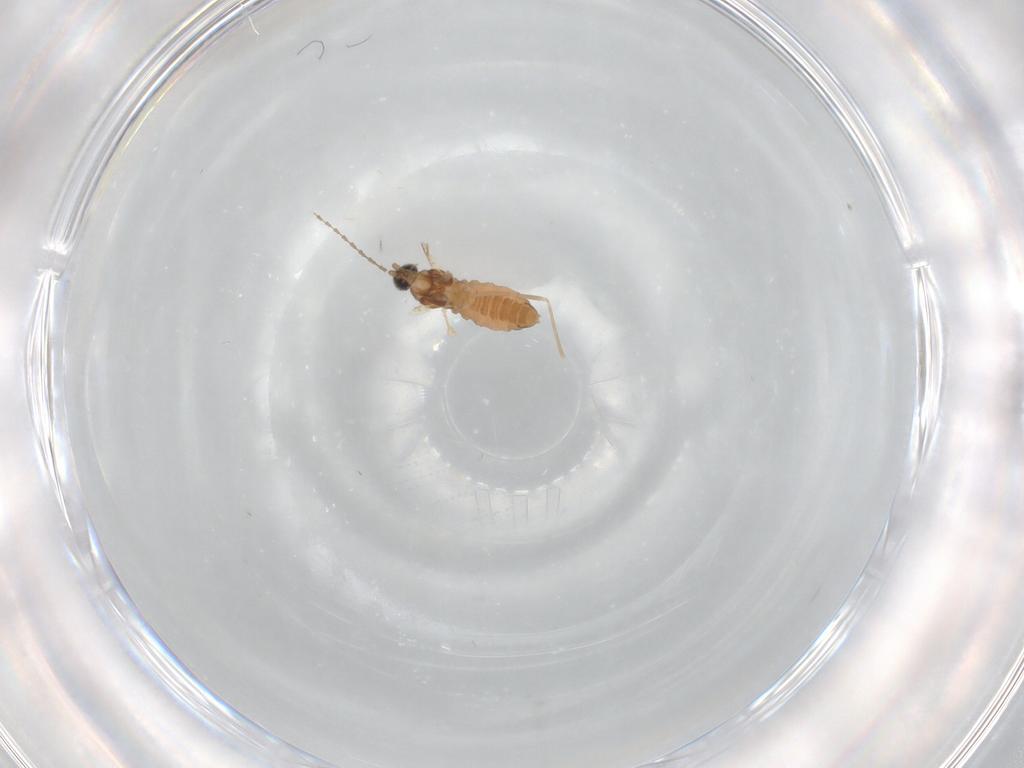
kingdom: Animalia
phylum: Arthropoda
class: Insecta
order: Diptera
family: Cecidomyiidae
